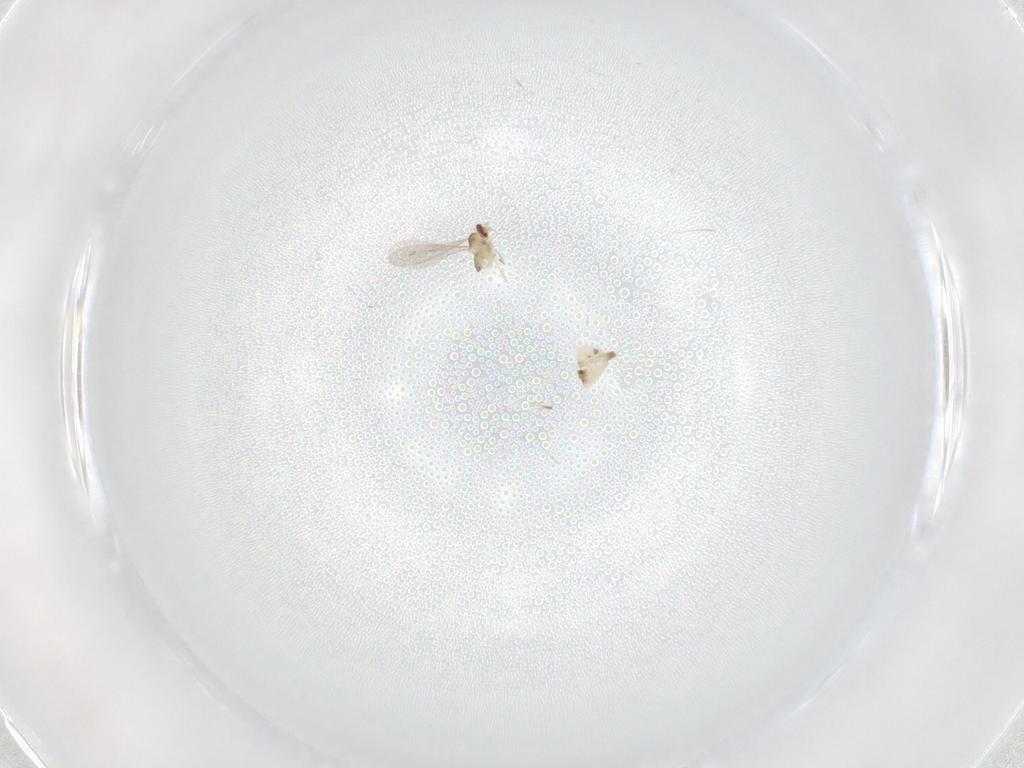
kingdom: Animalia
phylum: Arthropoda
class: Insecta
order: Diptera
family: Cecidomyiidae
